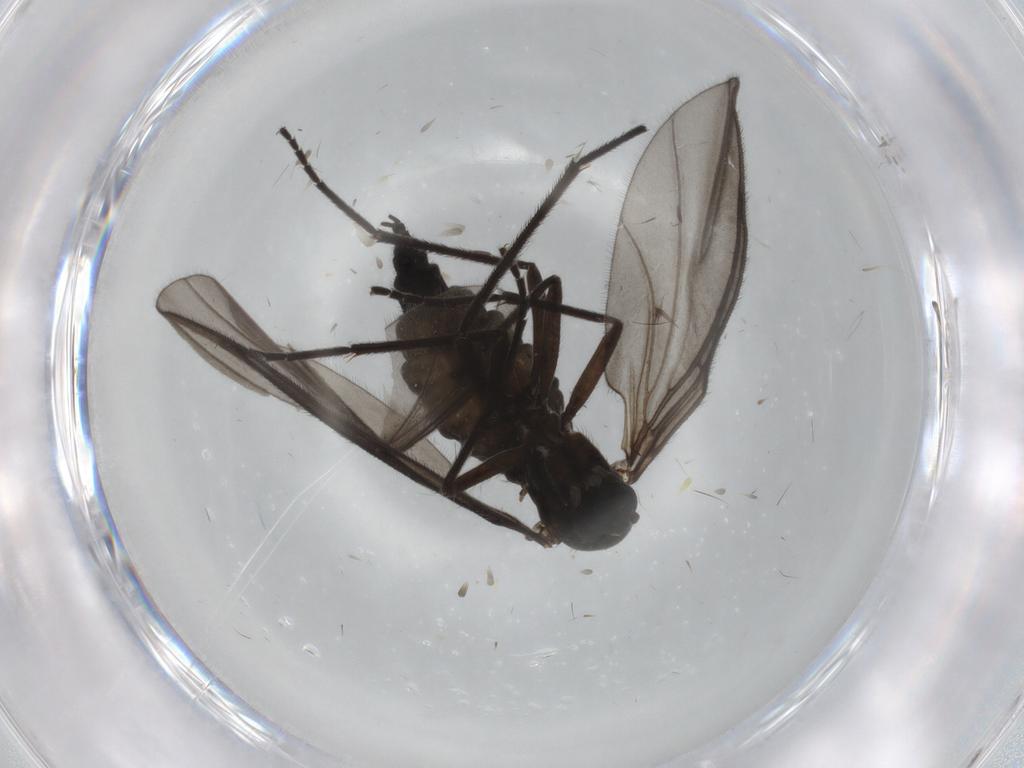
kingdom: Animalia
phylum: Arthropoda
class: Insecta
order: Diptera
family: Sciaridae
